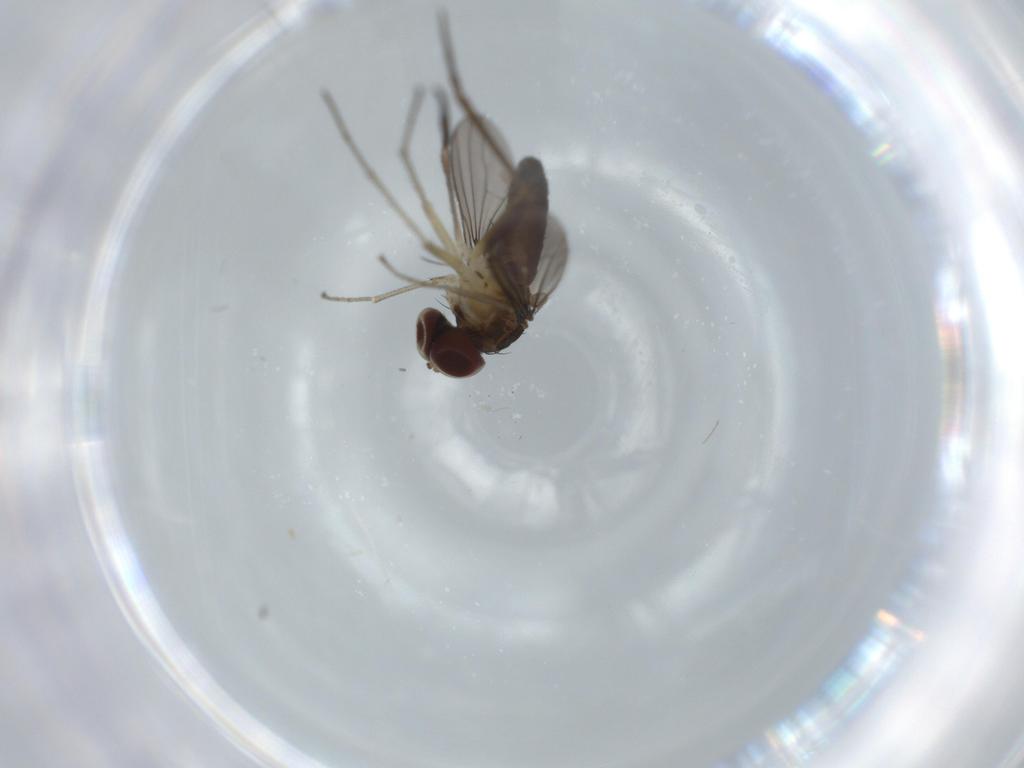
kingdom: Animalia
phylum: Arthropoda
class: Insecta
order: Diptera
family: Dolichopodidae
